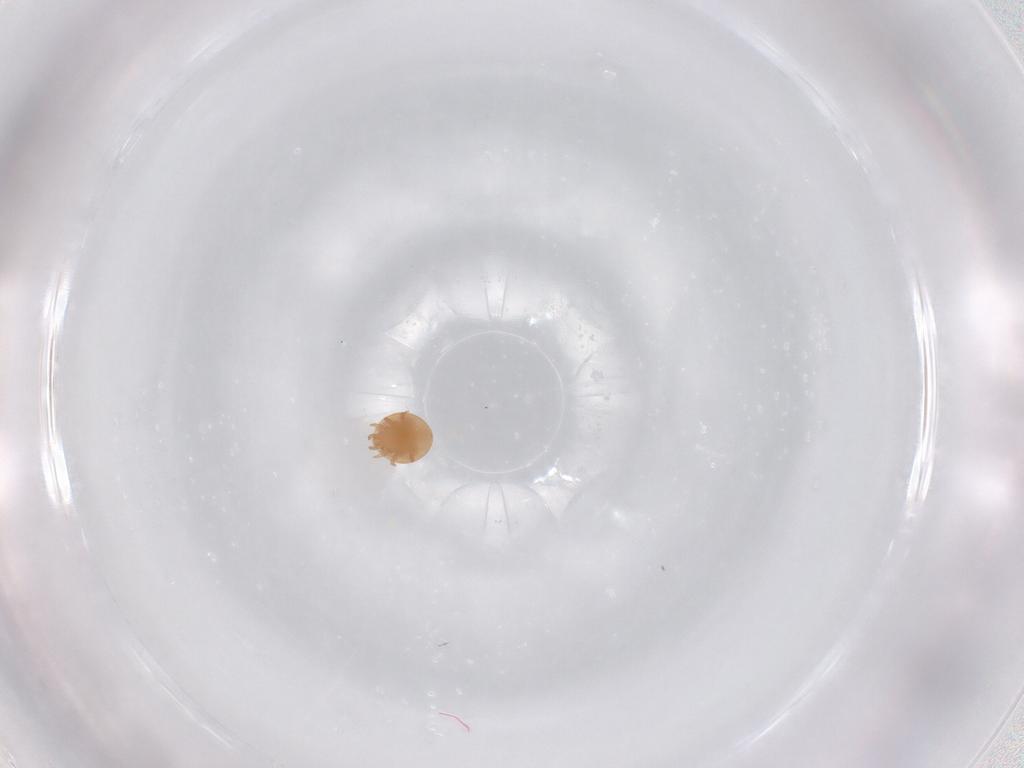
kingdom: Animalia
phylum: Arthropoda
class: Arachnida
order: Mesostigmata
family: Trematuridae
